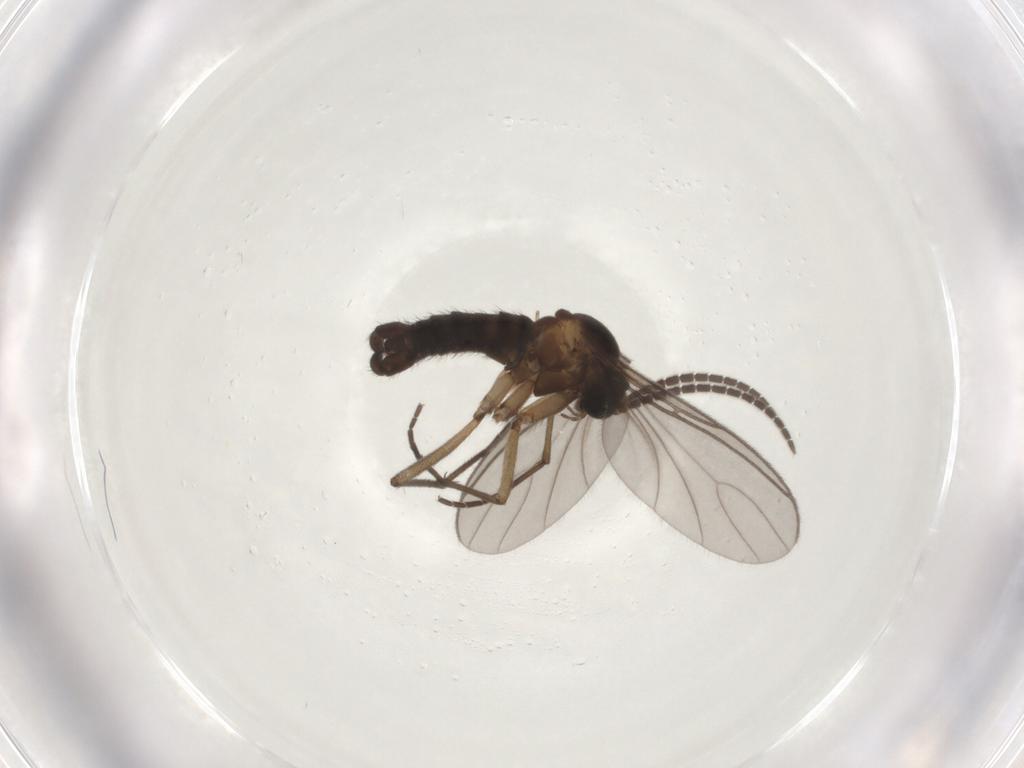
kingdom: Animalia
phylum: Arthropoda
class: Insecta
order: Diptera
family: Sciaridae
